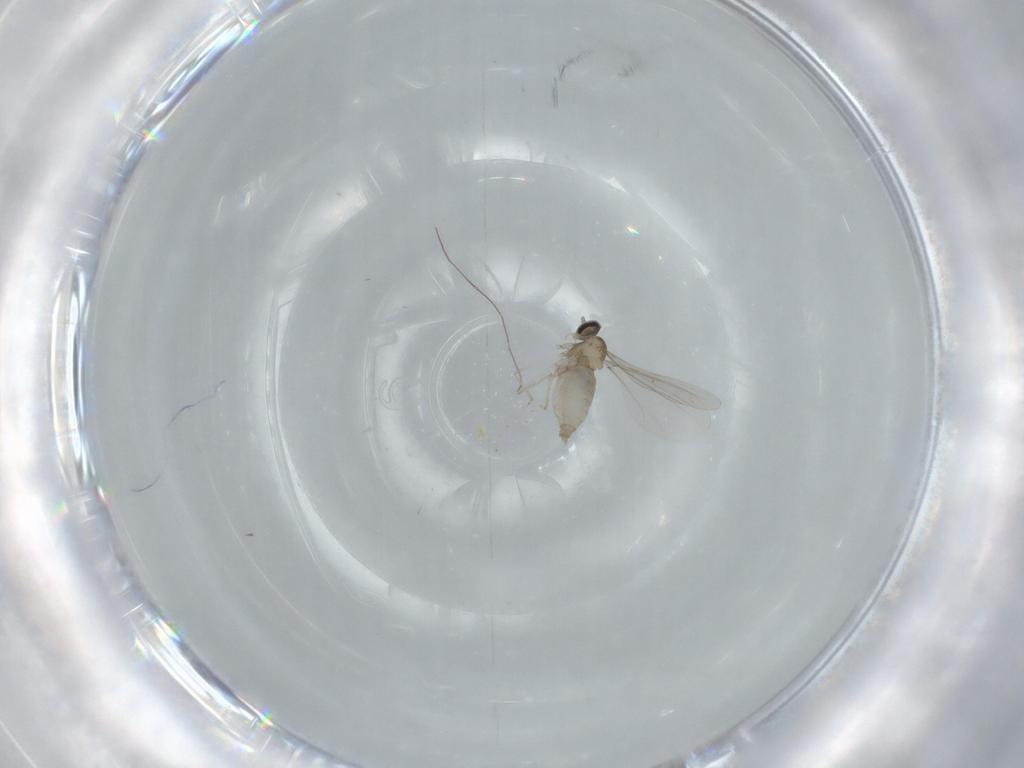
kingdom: Animalia
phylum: Arthropoda
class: Insecta
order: Diptera
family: Cecidomyiidae
